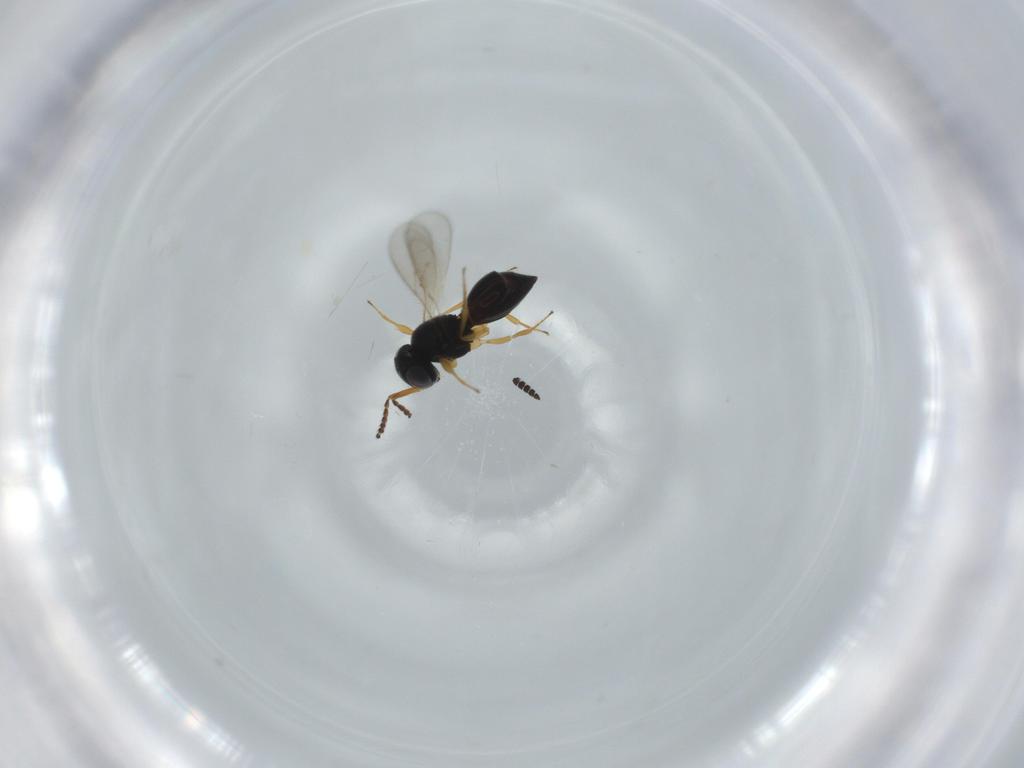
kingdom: Animalia
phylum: Arthropoda
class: Insecta
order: Hymenoptera
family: Scelionidae
